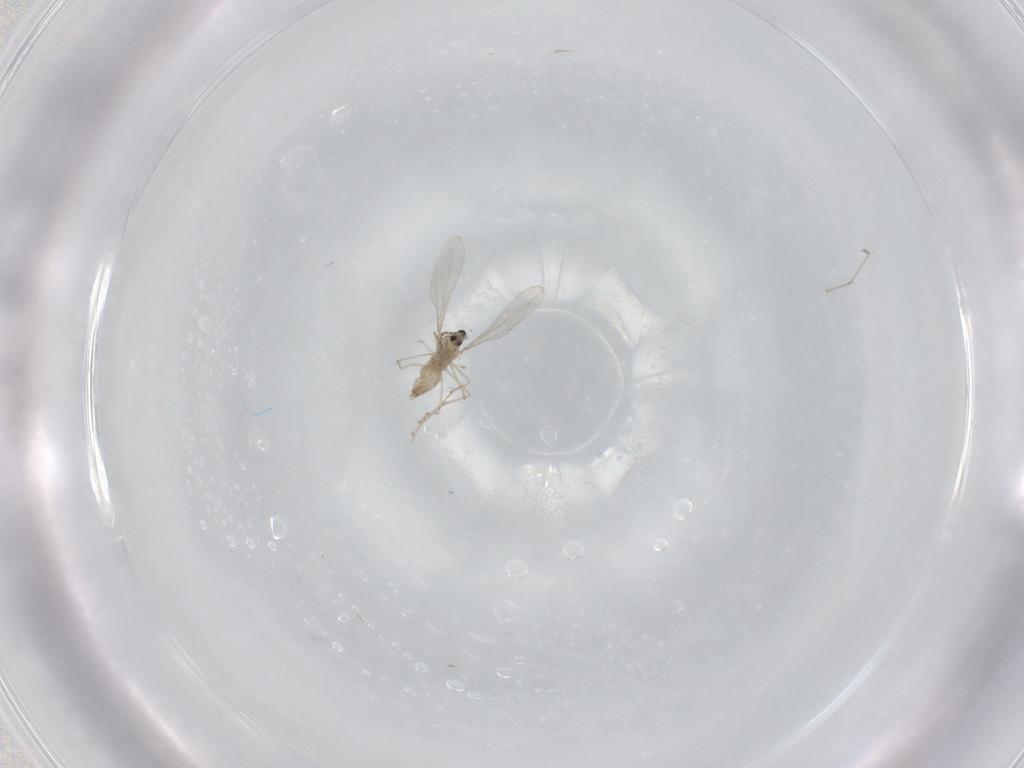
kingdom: Animalia
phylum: Arthropoda
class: Insecta
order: Diptera
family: Cecidomyiidae
